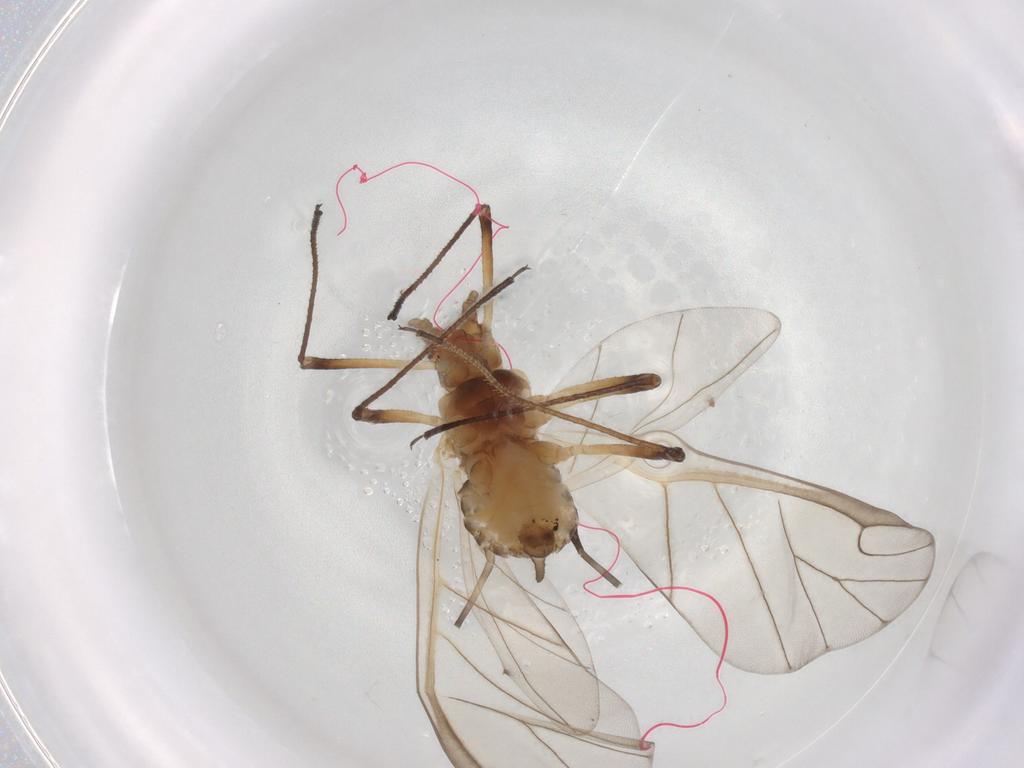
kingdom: Animalia
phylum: Arthropoda
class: Insecta
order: Hemiptera
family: Aphididae
